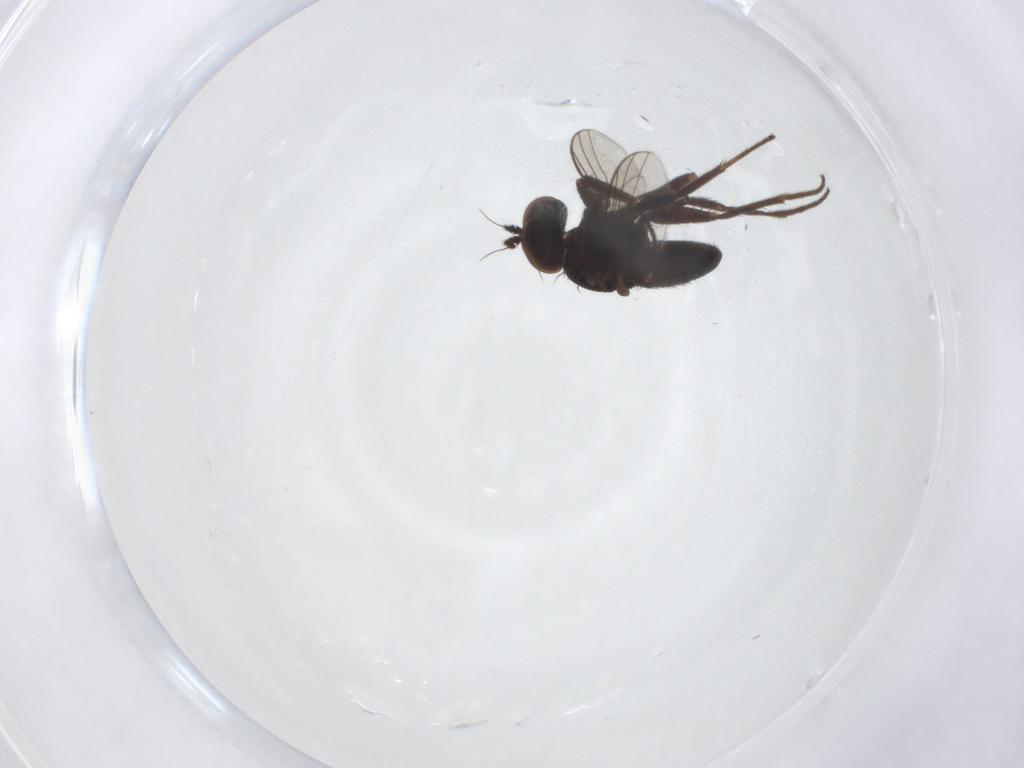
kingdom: Animalia
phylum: Arthropoda
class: Insecta
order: Diptera
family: Dolichopodidae
